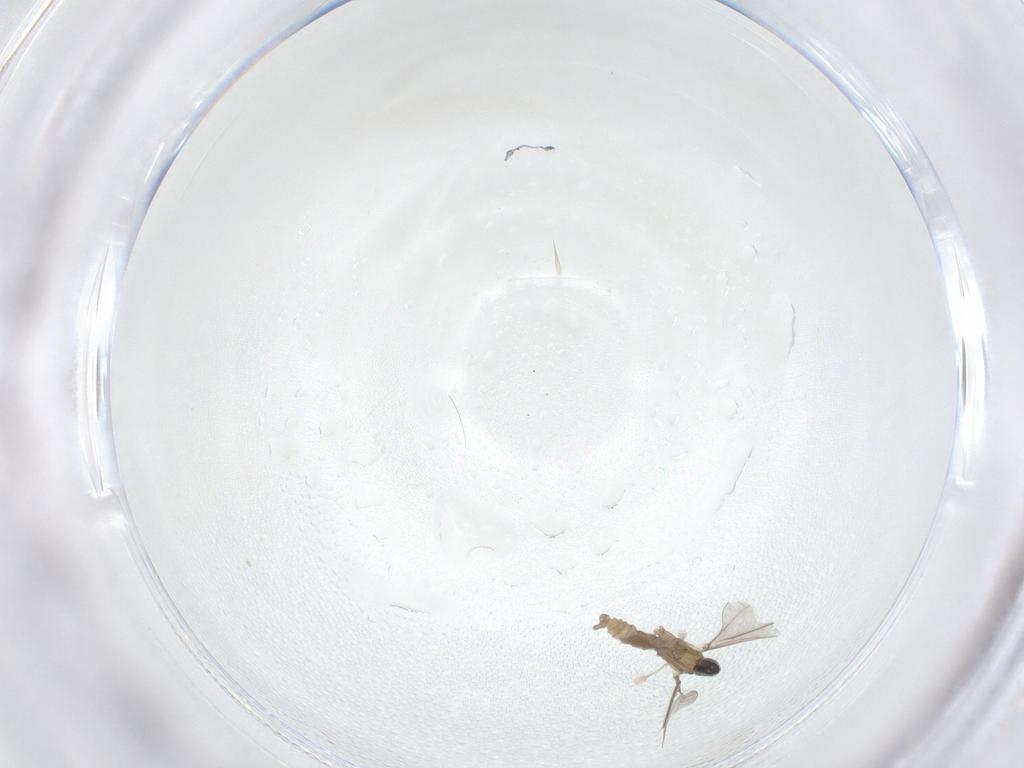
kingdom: Animalia
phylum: Arthropoda
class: Insecta
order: Diptera
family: Cecidomyiidae
